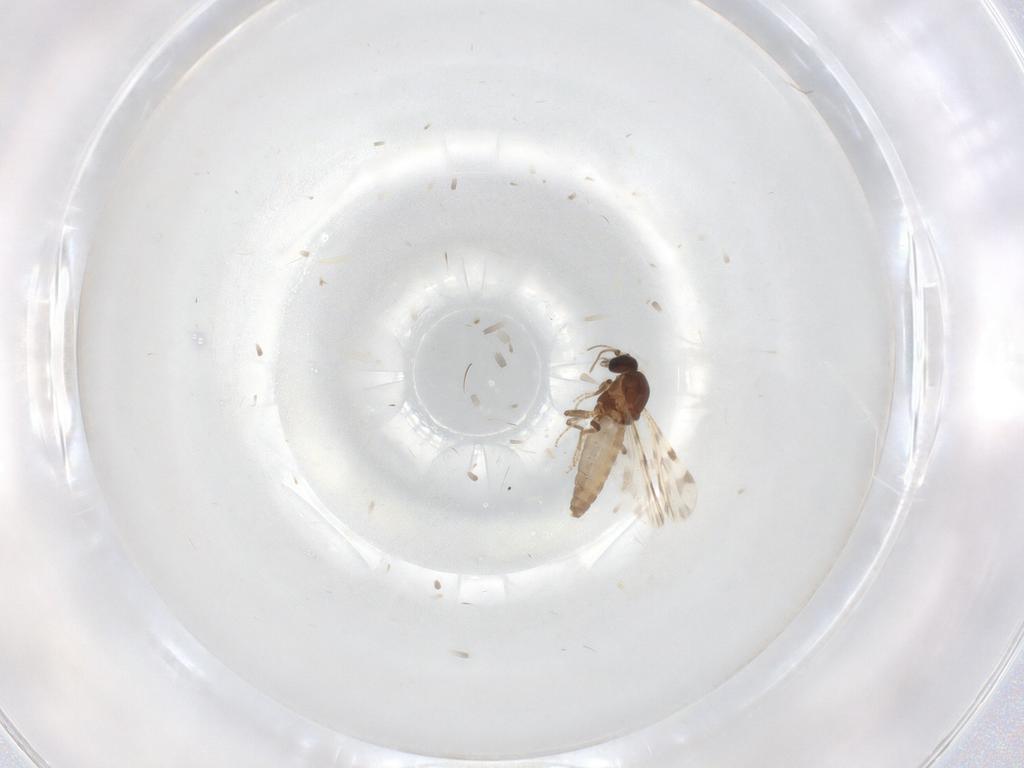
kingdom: Animalia
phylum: Arthropoda
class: Insecta
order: Diptera
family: Ceratopogonidae
